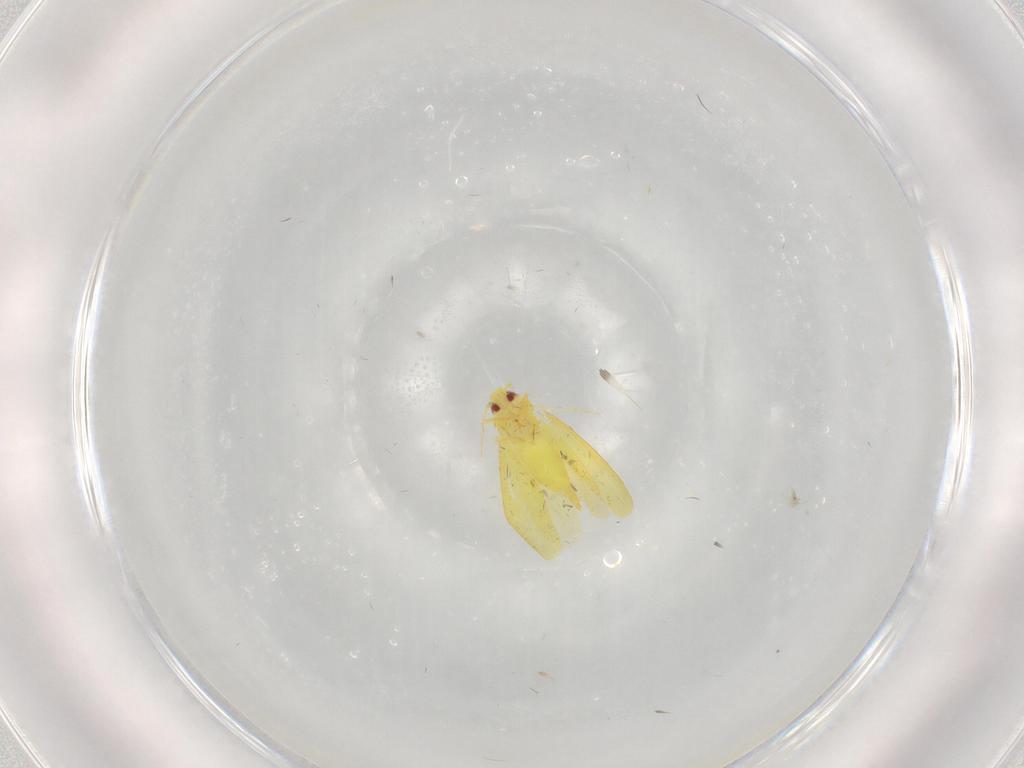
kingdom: Animalia
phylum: Arthropoda
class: Insecta
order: Hemiptera
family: Aleyrodidae
